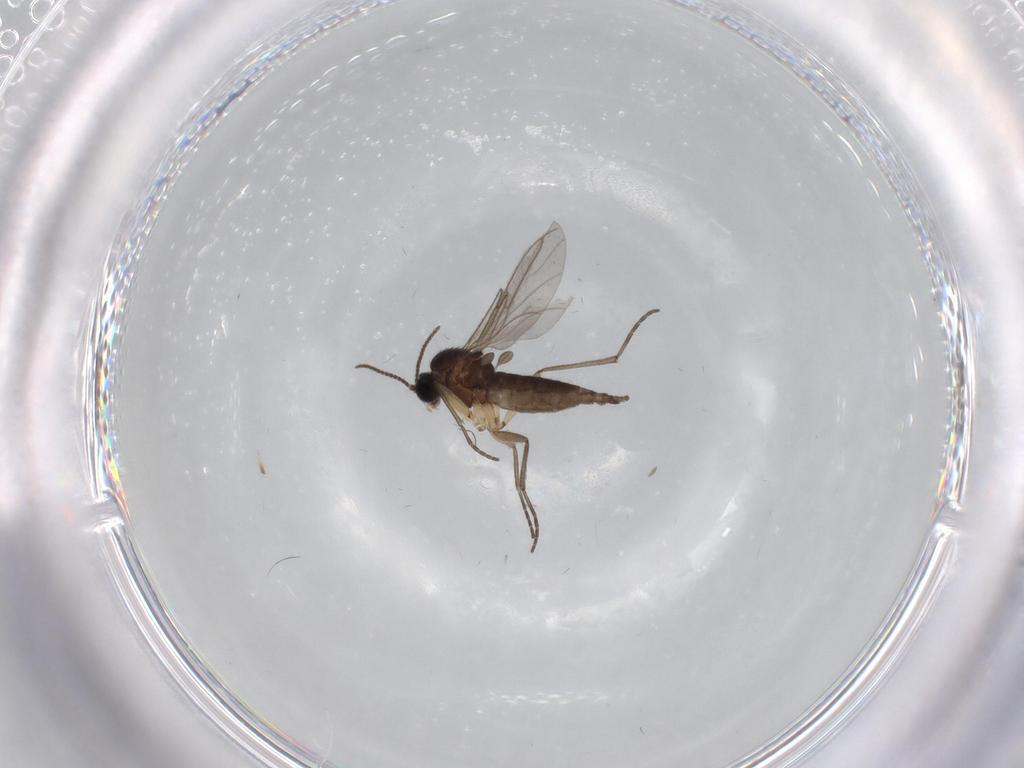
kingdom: Animalia
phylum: Arthropoda
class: Insecta
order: Diptera
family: Sciaridae
